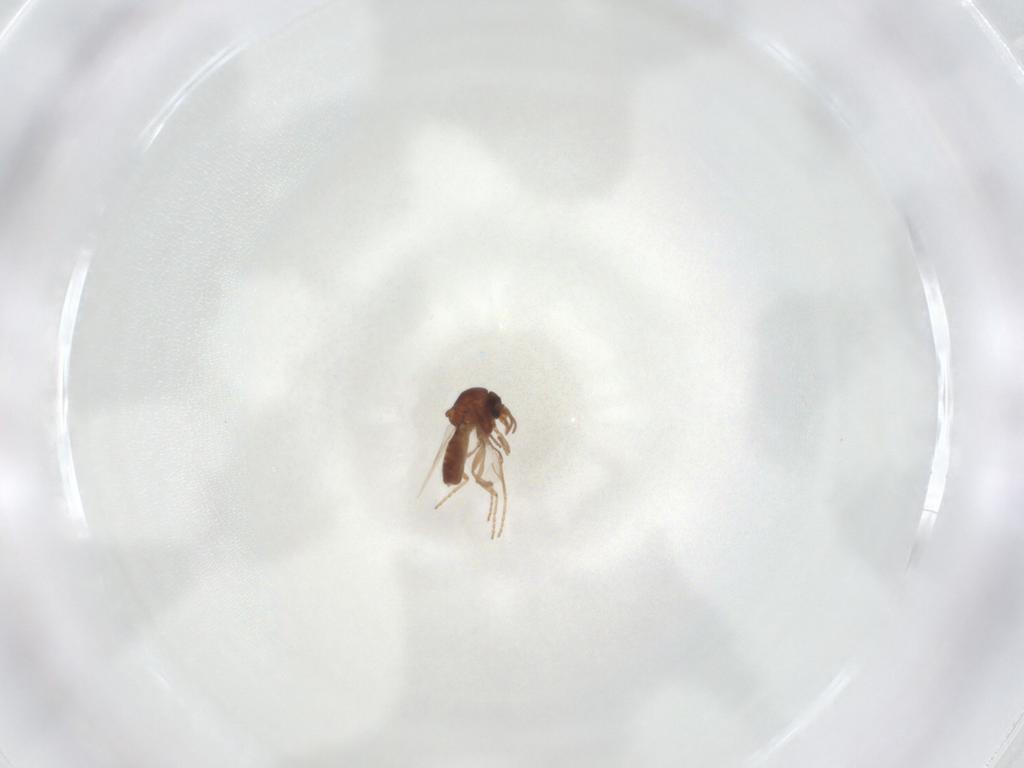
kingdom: Animalia
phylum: Arthropoda
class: Insecta
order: Diptera
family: Ceratopogonidae
